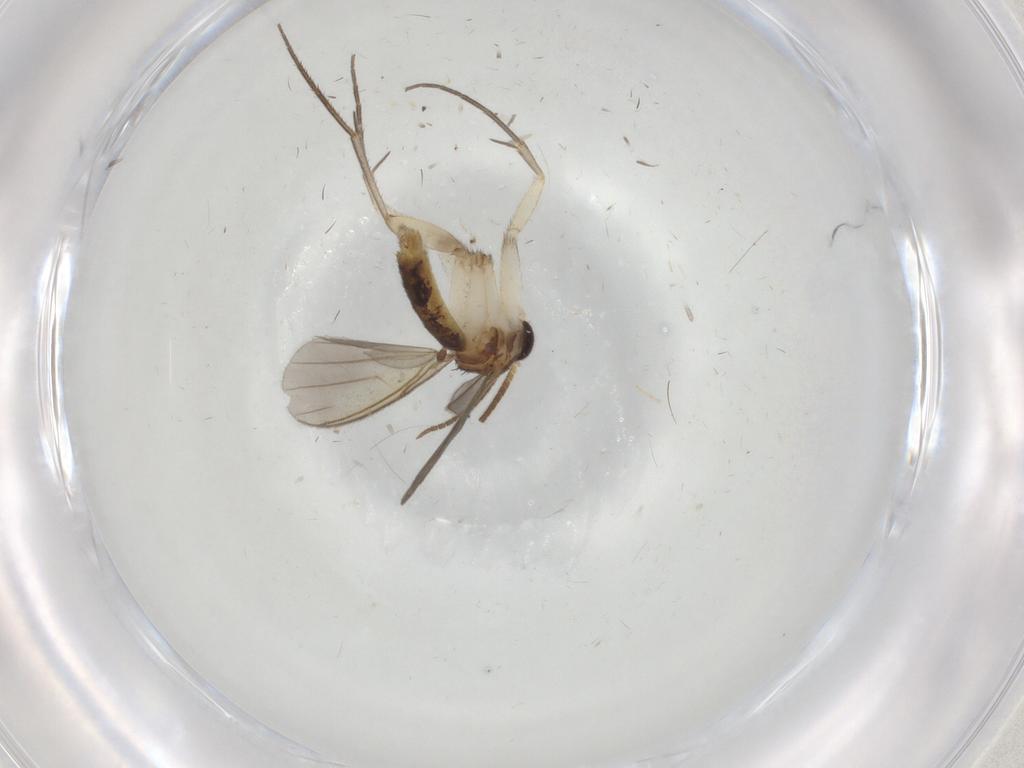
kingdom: Animalia
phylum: Arthropoda
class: Insecta
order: Diptera
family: Mycetophilidae
